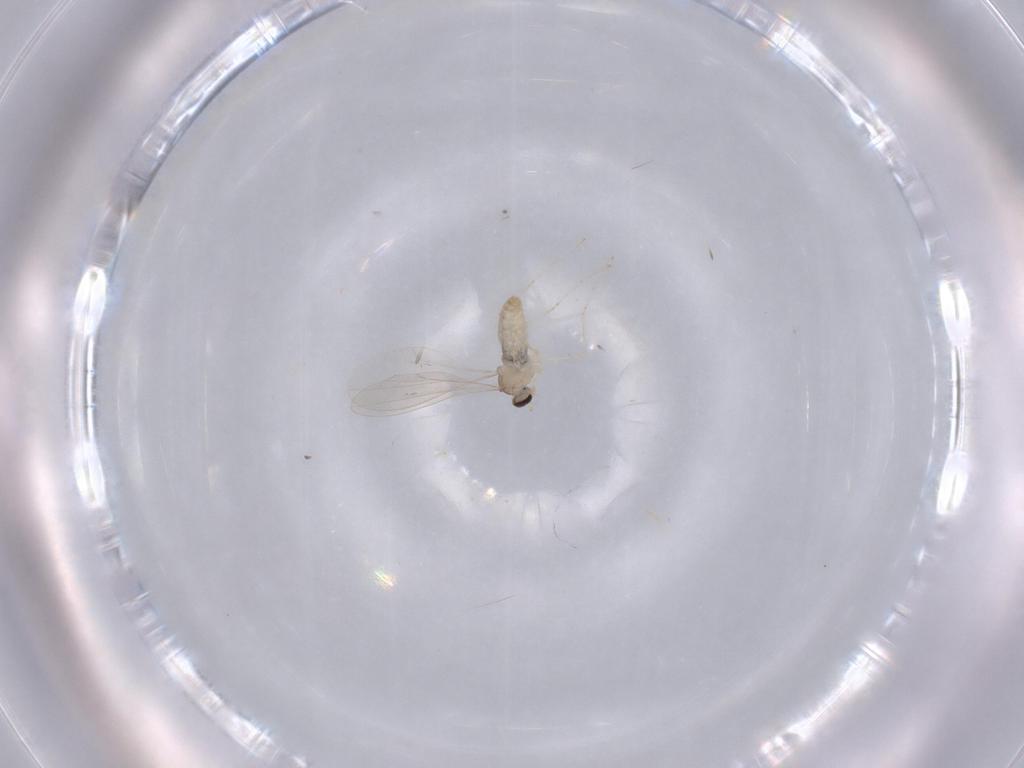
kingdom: Animalia
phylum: Arthropoda
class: Insecta
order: Diptera
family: Cecidomyiidae
